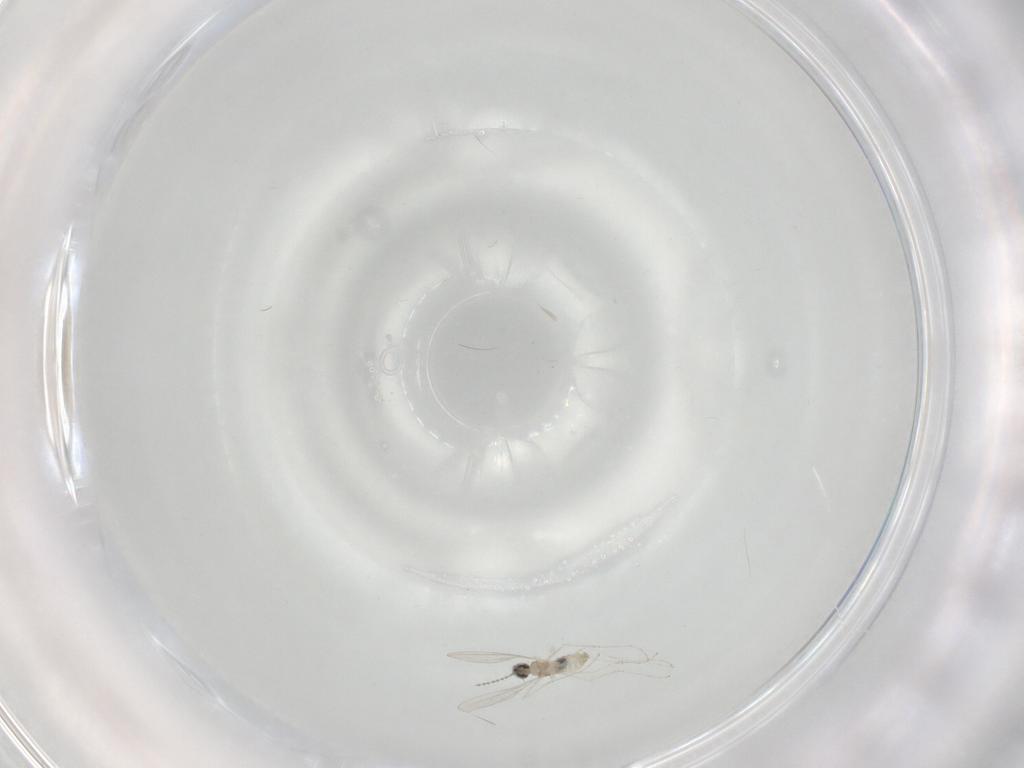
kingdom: Animalia
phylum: Arthropoda
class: Insecta
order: Diptera
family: Cecidomyiidae
